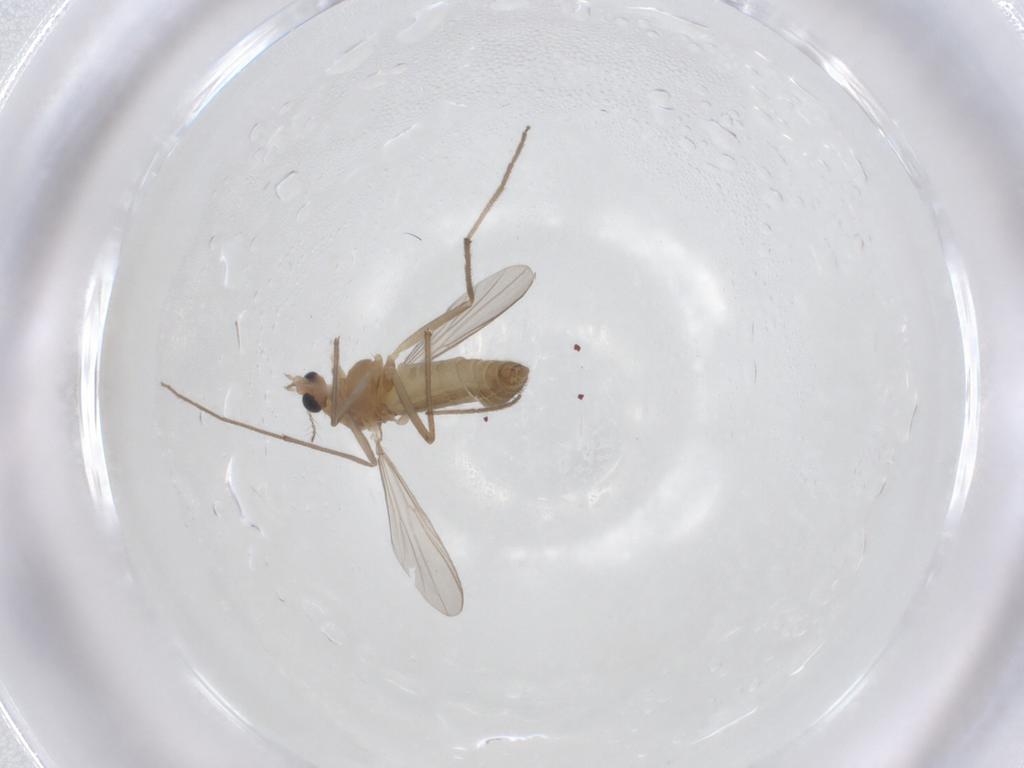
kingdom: Animalia
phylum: Arthropoda
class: Insecta
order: Diptera
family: Chironomidae
